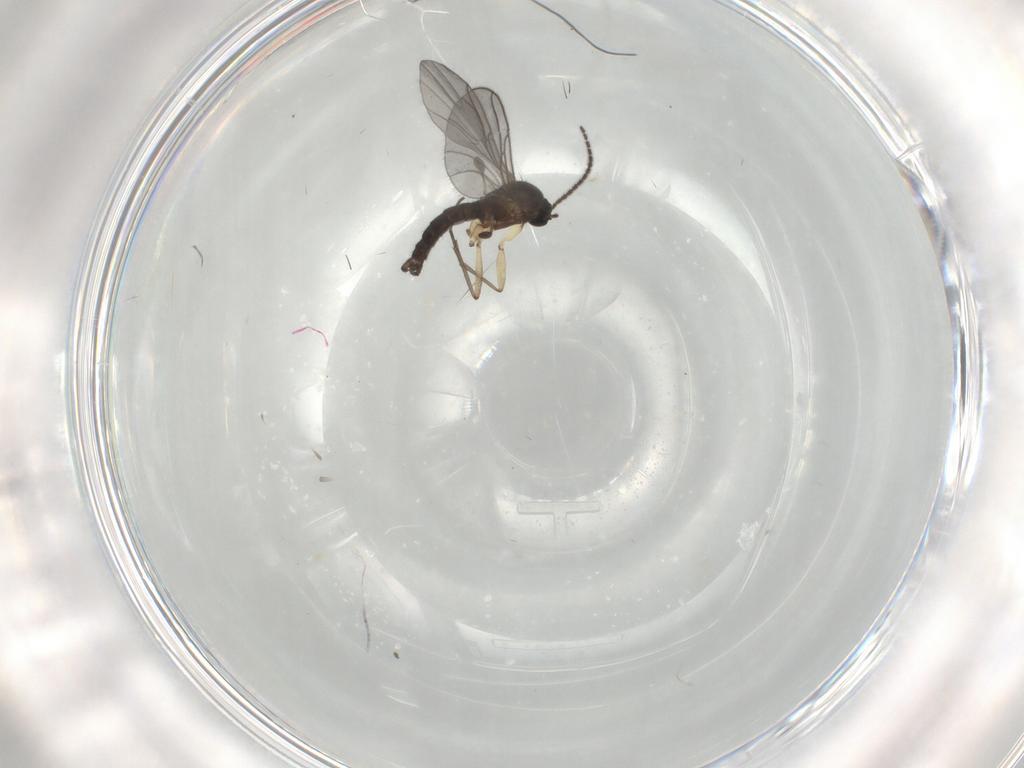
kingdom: Animalia
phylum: Arthropoda
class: Insecta
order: Diptera
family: Sciaridae
